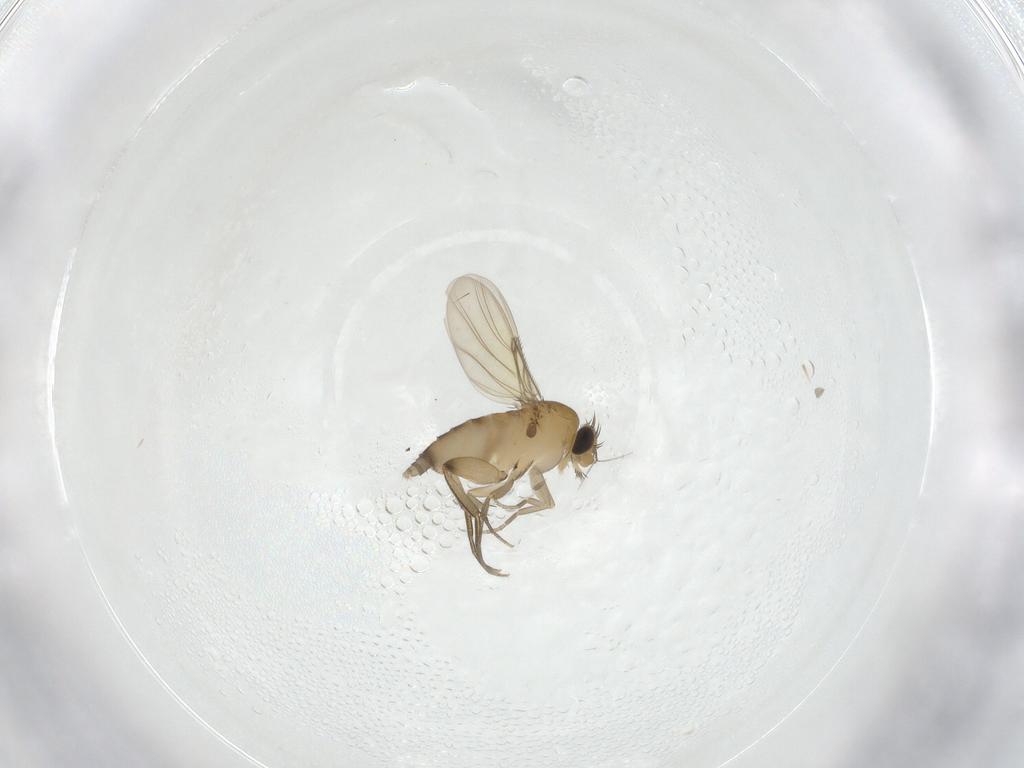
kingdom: Animalia
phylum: Arthropoda
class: Insecta
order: Diptera
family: Phoridae
